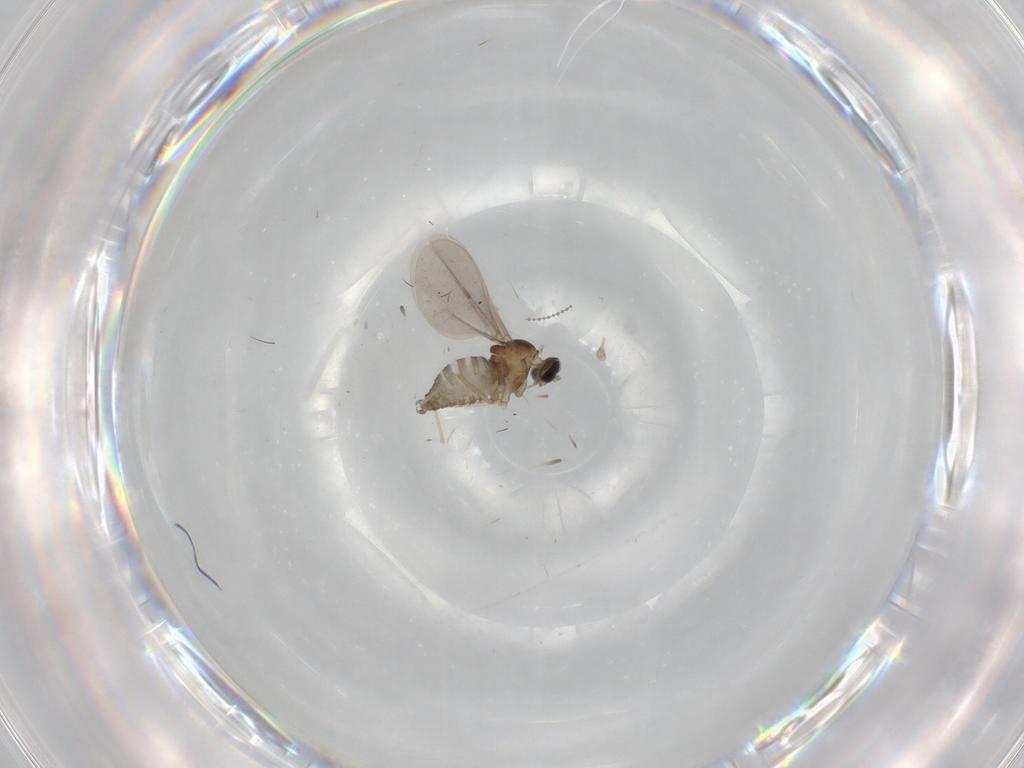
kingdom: Animalia
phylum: Arthropoda
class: Insecta
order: Diptera
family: Cecidomyiidae
